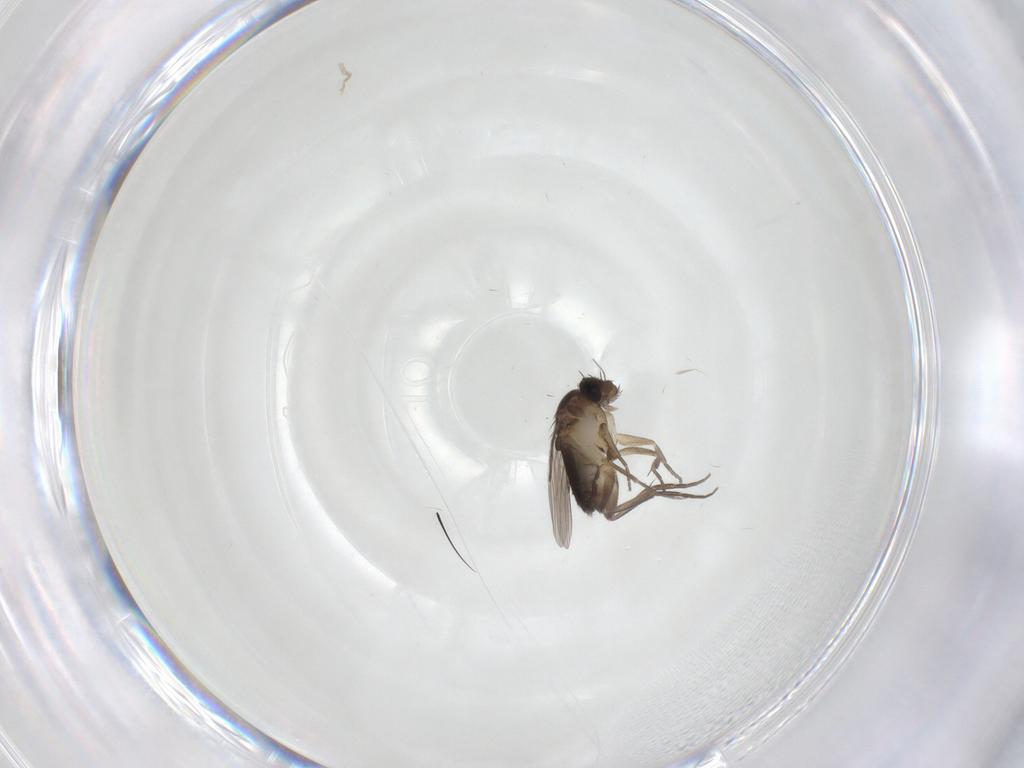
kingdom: Animalia
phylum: Arthropoda
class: Insecta
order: Diptera
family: Phoridae
